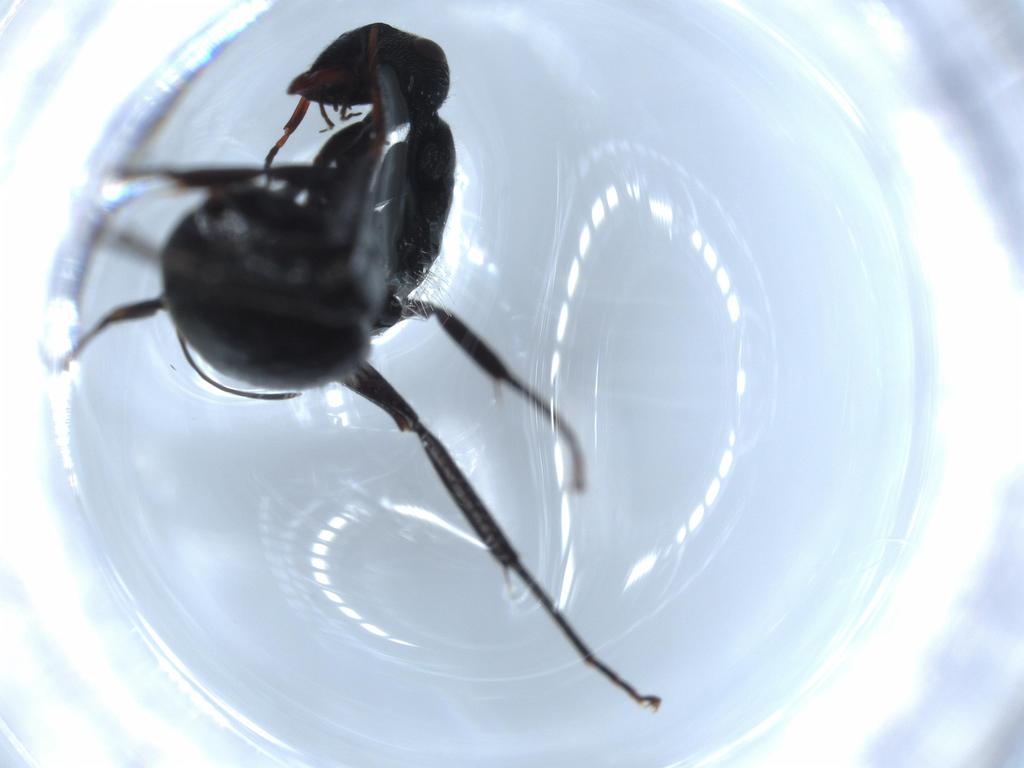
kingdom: Animalia
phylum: Arthropoda
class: Insecta
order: Hymenoptera
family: Formicidae
